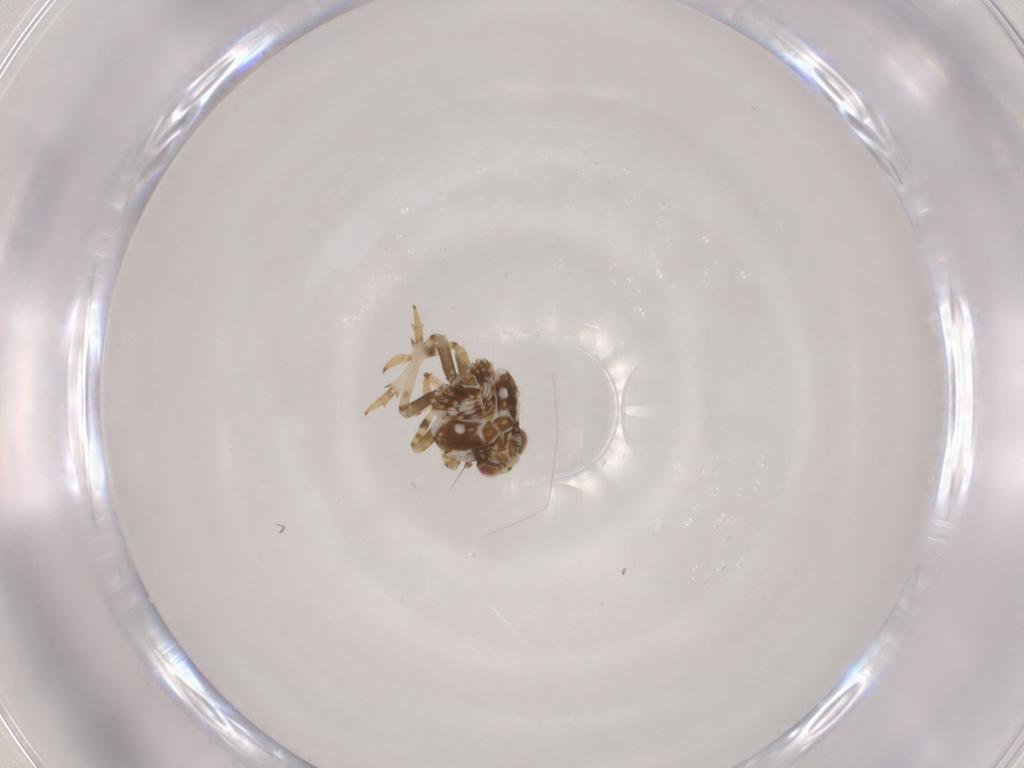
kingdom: Animalia
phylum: Arthropoda
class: Insecta
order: Hemiptera
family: Issidae
